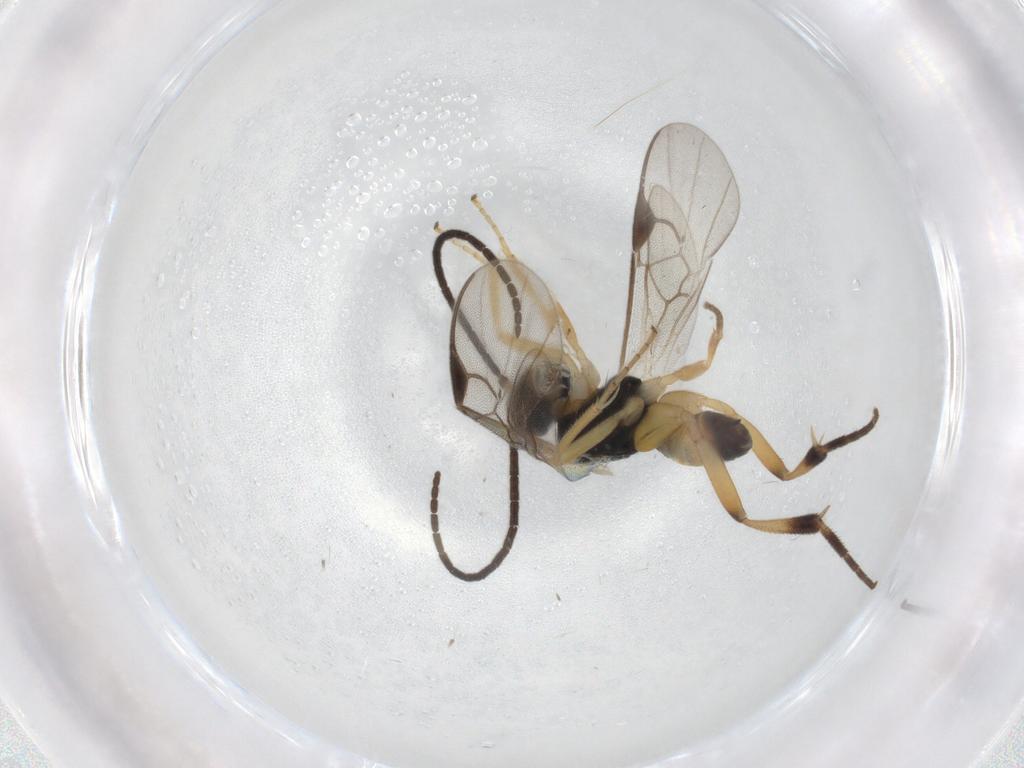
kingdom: Animalia
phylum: Arthropoda
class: Insecta
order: Hymenoptera
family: Braconidae
